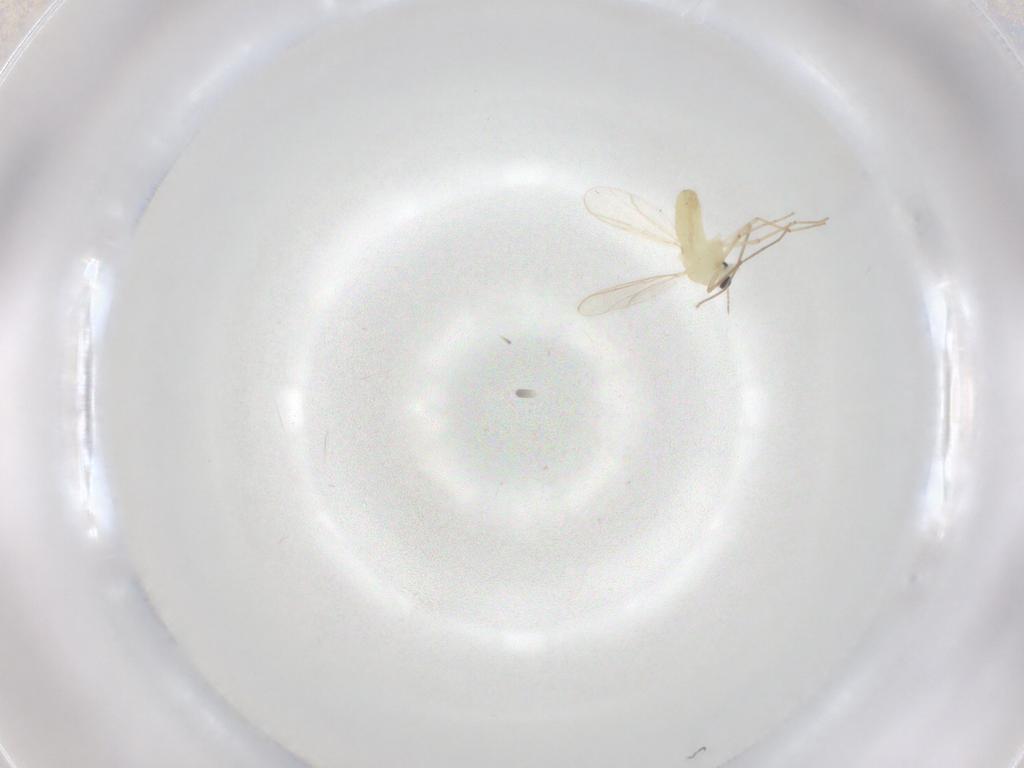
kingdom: Animalia
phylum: Arthropoda
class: Insecta
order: Diptera
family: Chironomidae
